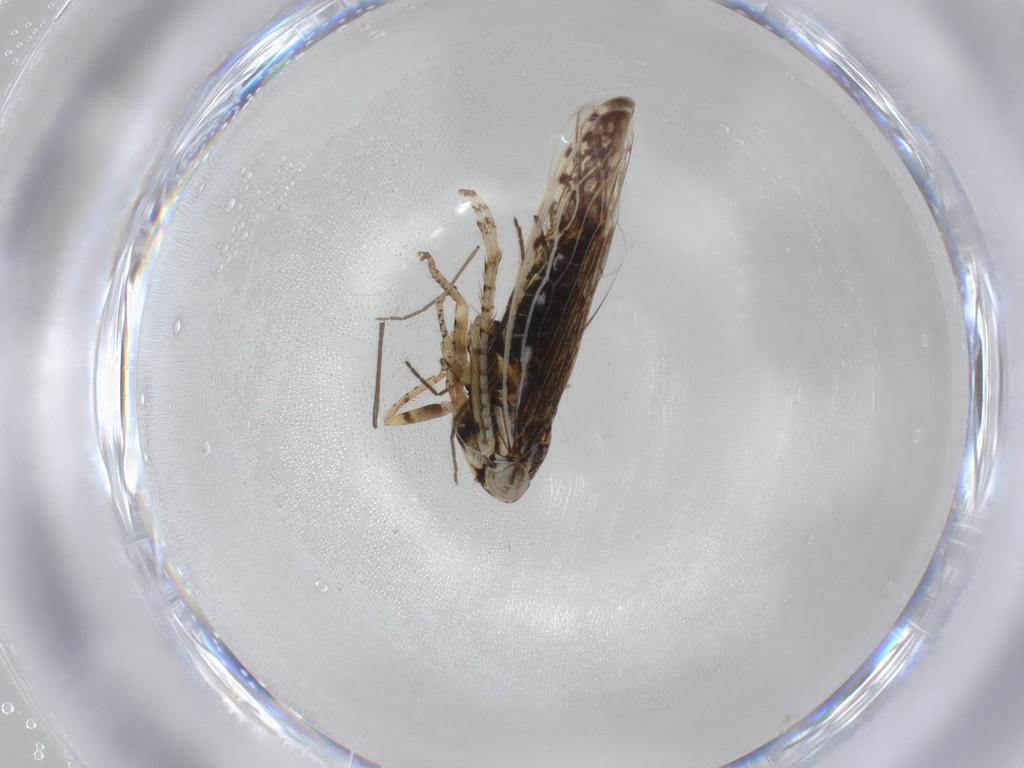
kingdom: Animalia
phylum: Arthropoda
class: Insecta
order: Hemiptera
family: Cicadellidae
